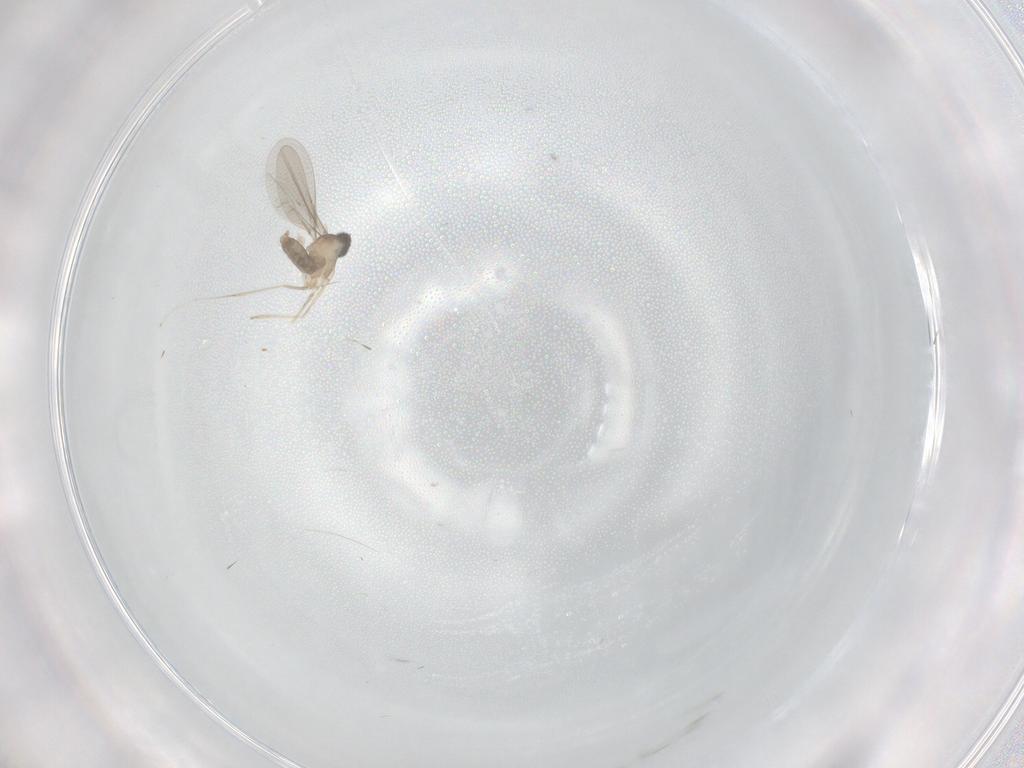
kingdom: Animalia
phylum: Arthropoda
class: Insecta
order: Diptera
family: Cecidomyiidae
